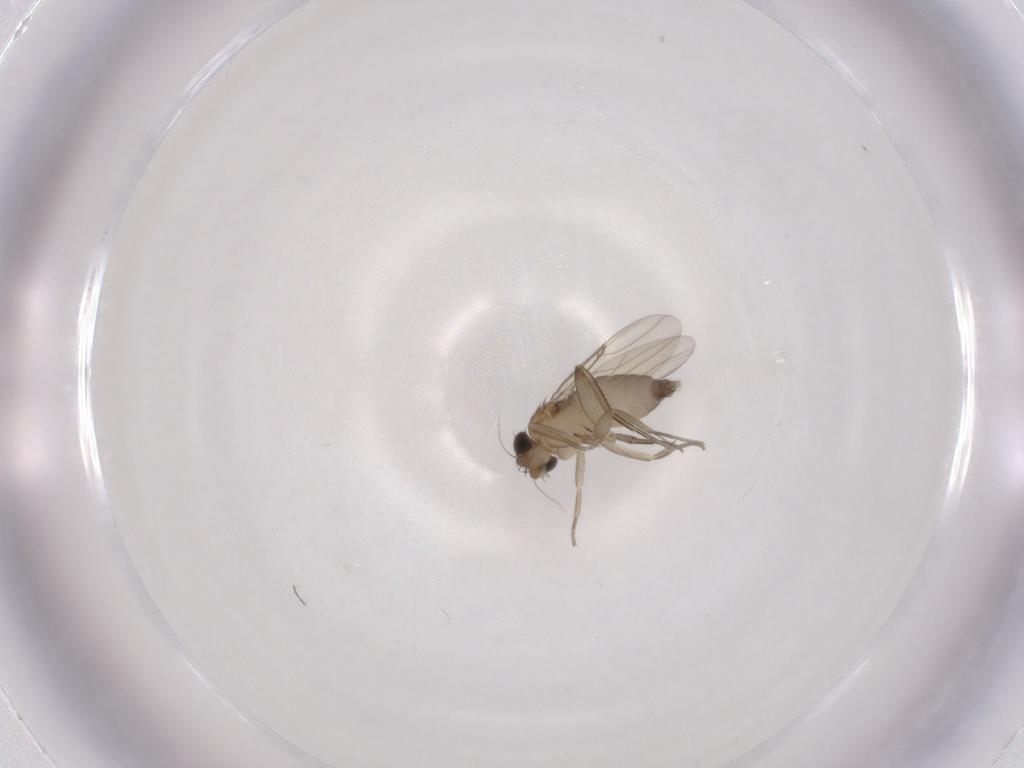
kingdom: Animalia
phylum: Arthropoda
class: Insecta
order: Diptera
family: Phoridae
